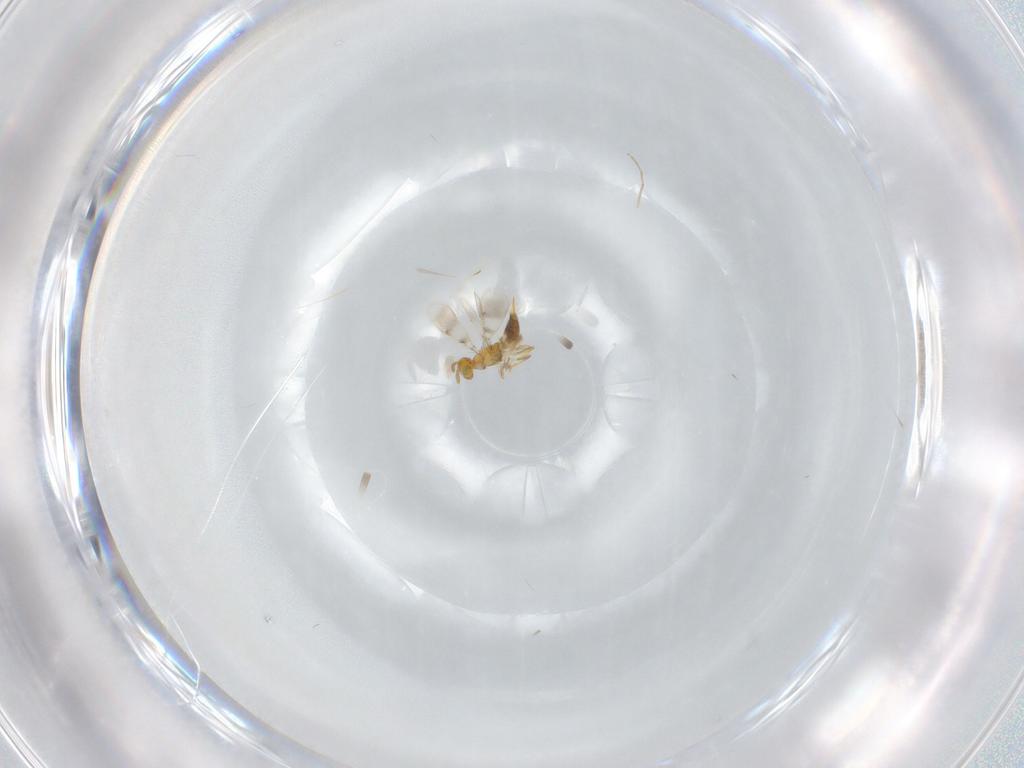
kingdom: Animalia
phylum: Arthropoda
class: Insecta
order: Hymenoptera
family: Aphelinidae
